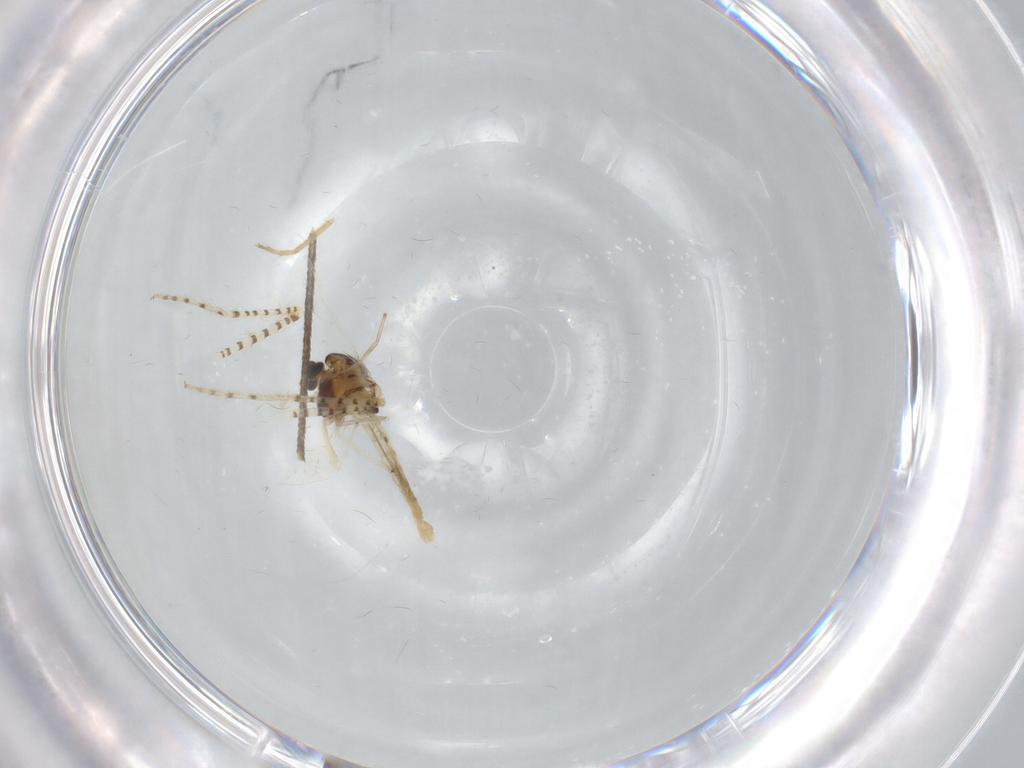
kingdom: Animalia
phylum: Arthropoda
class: Insecta
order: Diptera
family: Chironomidae
